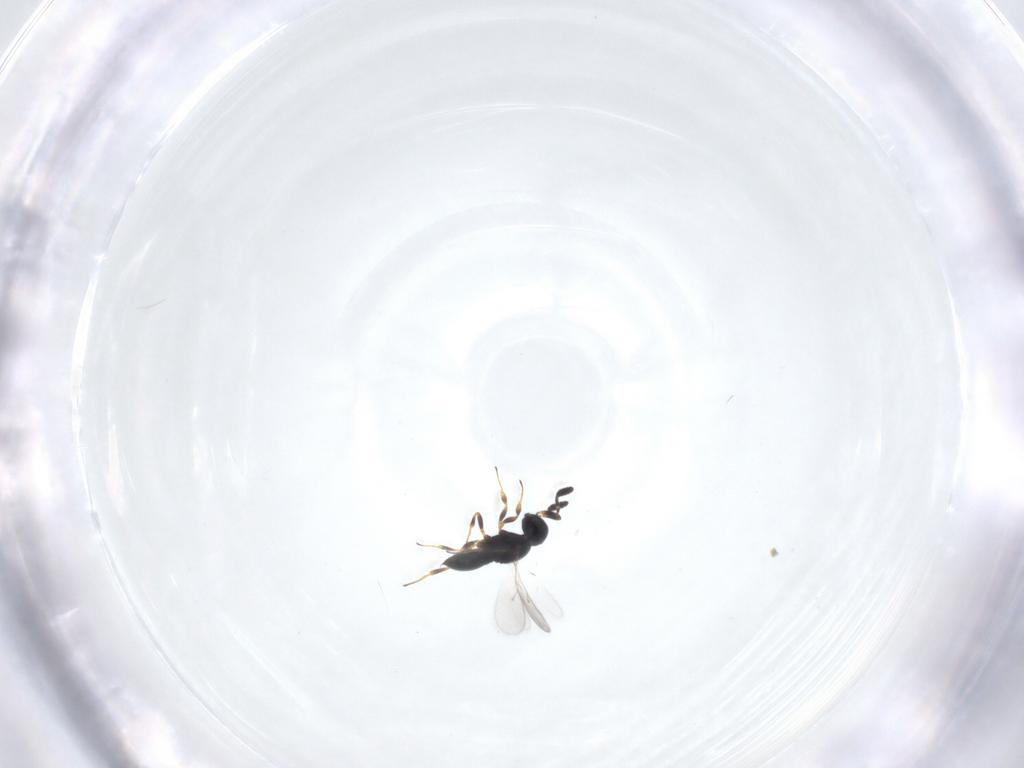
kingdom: Animalia
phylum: Arthropoda
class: Insecta
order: Hymenoptera
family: Scelionidae
